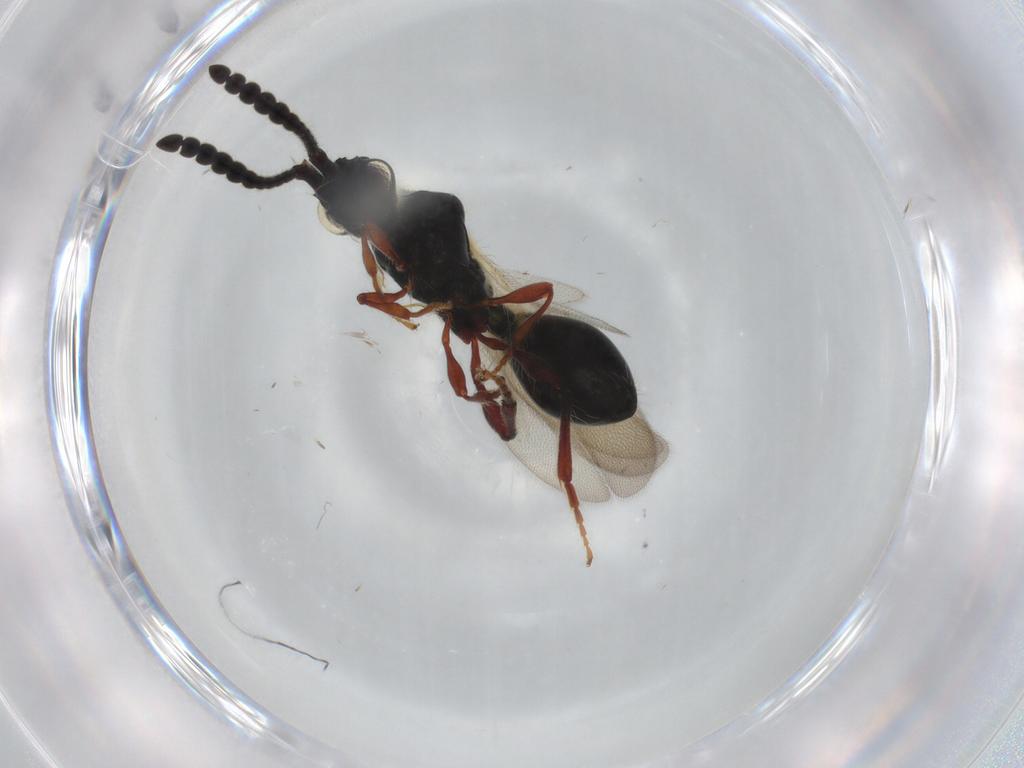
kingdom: Animalia
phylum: Arthropoda
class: Insecta
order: Hymenoptera
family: Diapriidae
